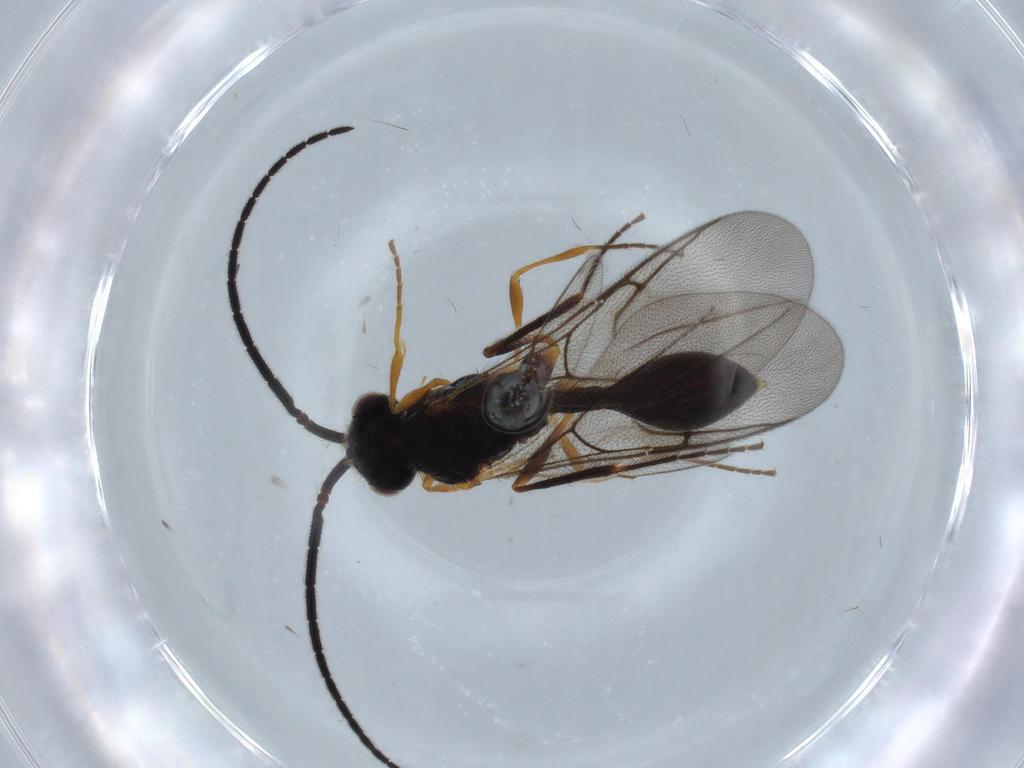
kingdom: Animalia
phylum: Arthropoda
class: Insecta
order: Hymenoptera
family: Diapriidae
